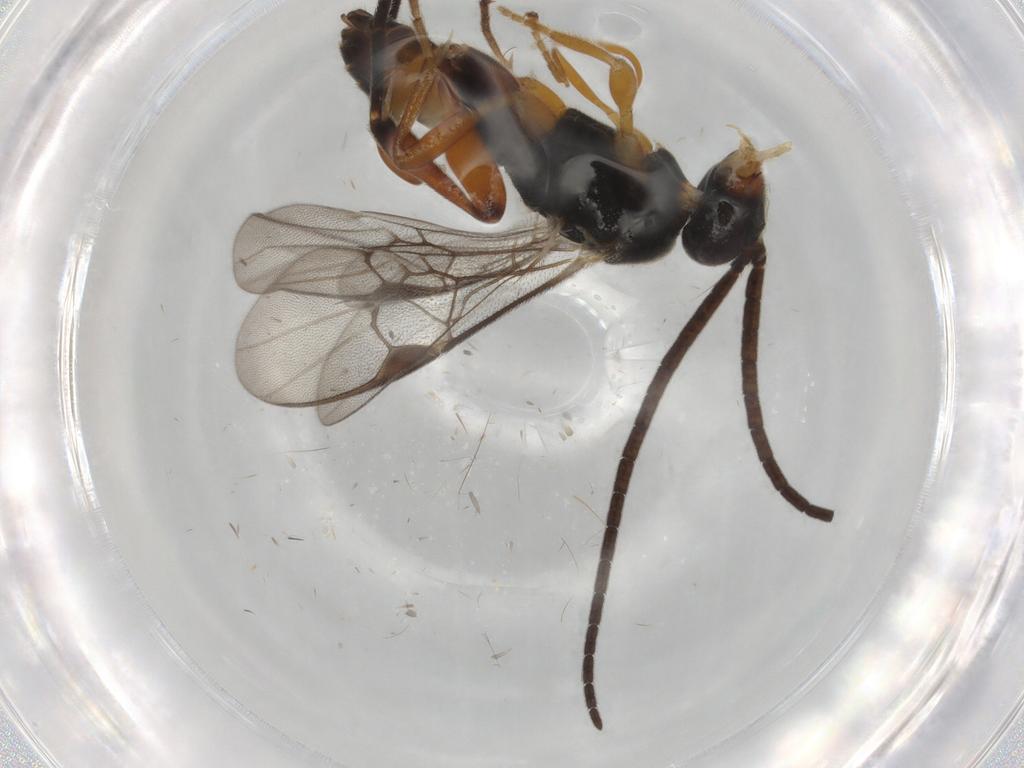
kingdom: Animalia
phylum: Arthropoda
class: Insecta
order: Hymenoptera
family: Braconidae
